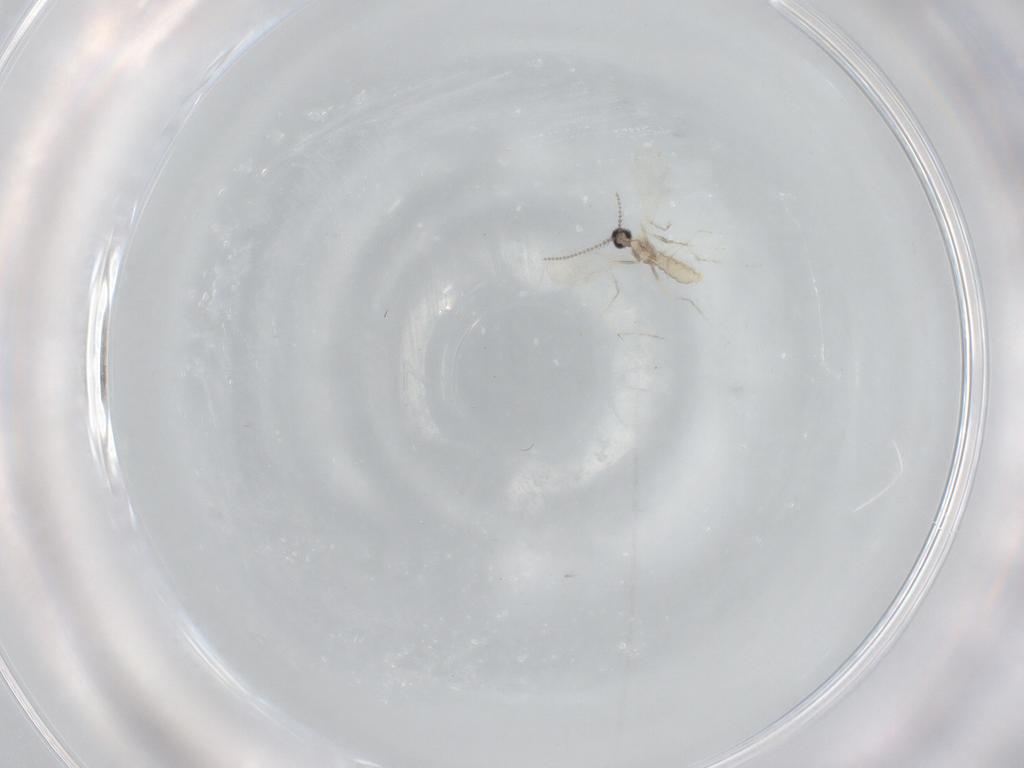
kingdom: Animalia
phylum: Arthropoda
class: Insecta
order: Diptera
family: Cecidomyiidae
